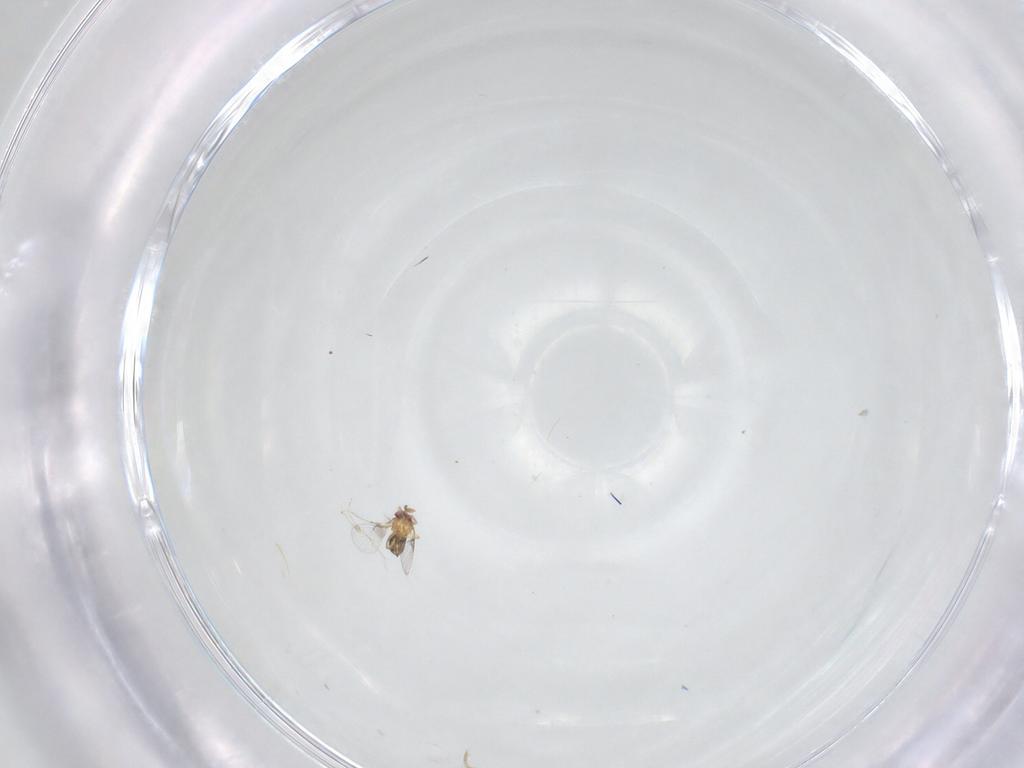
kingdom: Animalia
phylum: Arthropoda
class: Insecta
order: Hymenoptera
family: Trichogrammatidae
